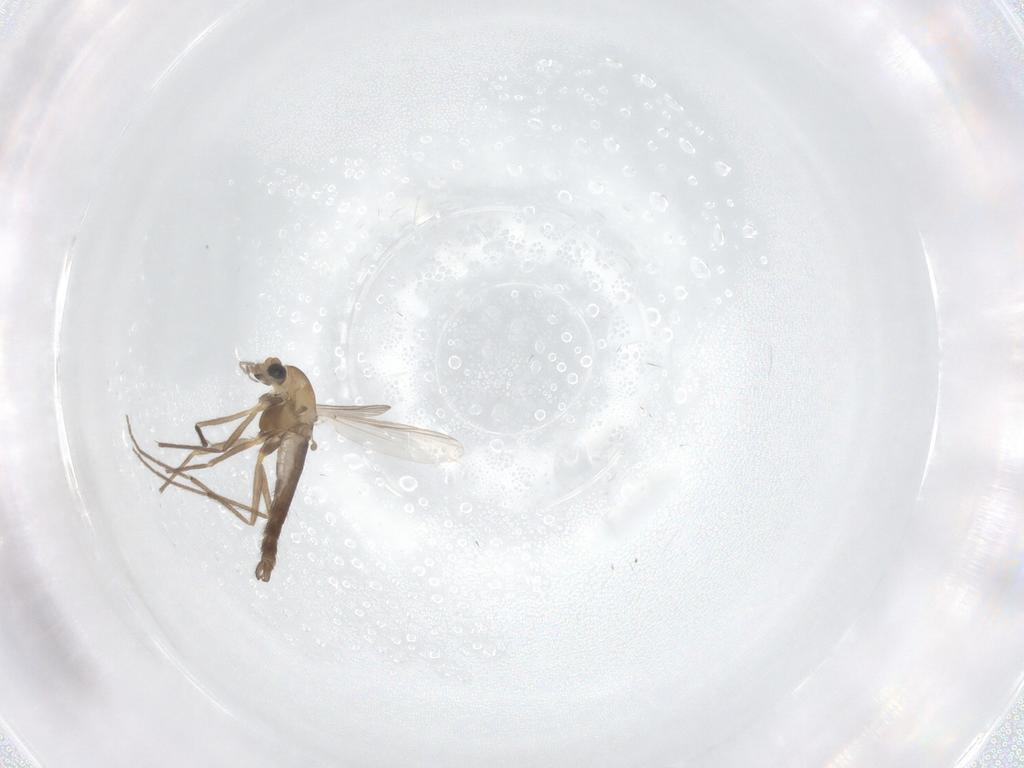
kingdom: Animalia
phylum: Arthropoda
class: Insecta
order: Diptera
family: Chironomidae
